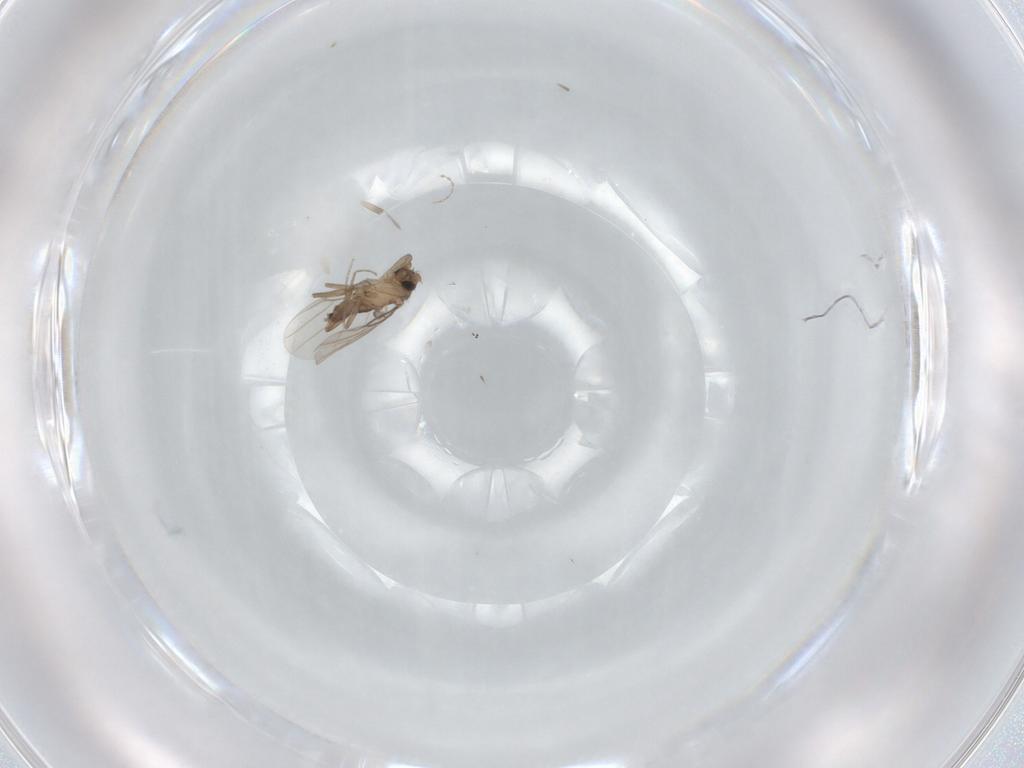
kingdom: Animalia
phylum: Arthropoda
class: Insecta
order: Diptera
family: Phoridae
